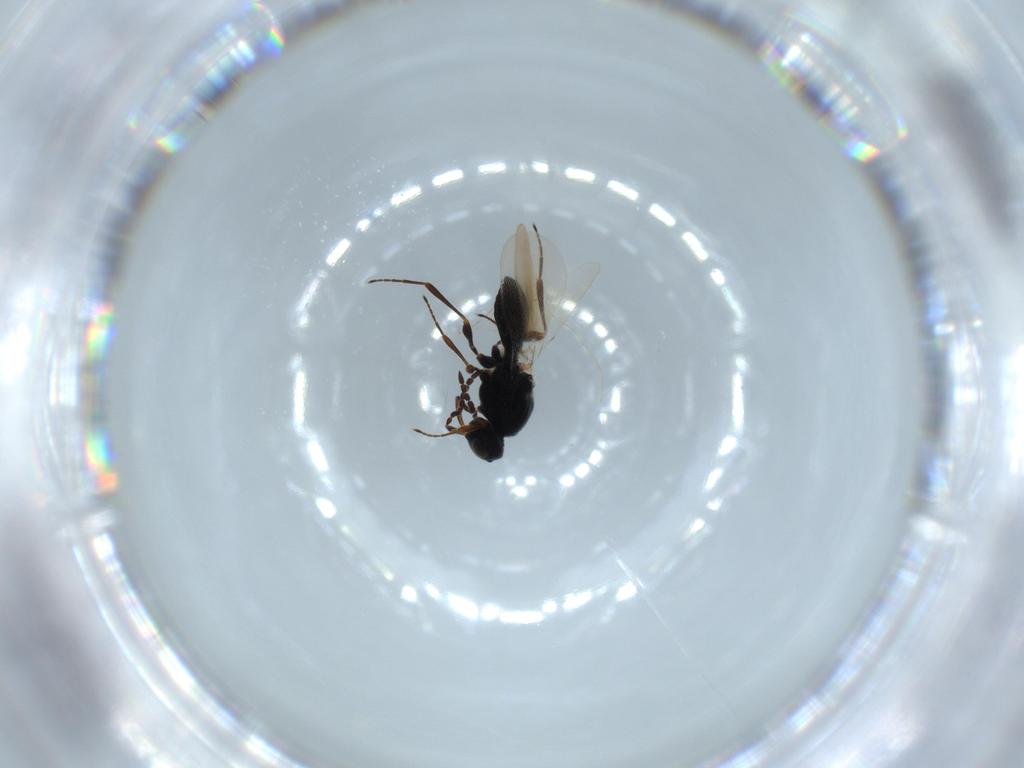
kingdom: Animalia
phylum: Arthropoda
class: Insecta
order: Hymenoptera
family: Platygastridae
